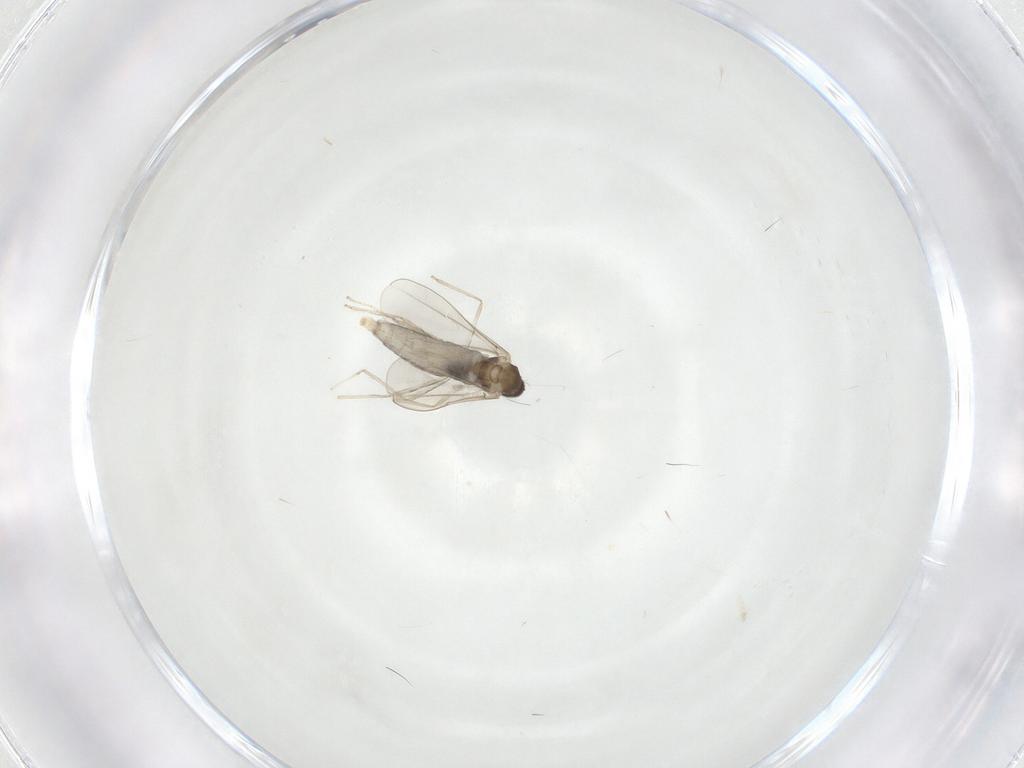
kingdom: Animalia
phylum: Arthropoda
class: Insecta
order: Diptera
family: Cecidomyiidae
